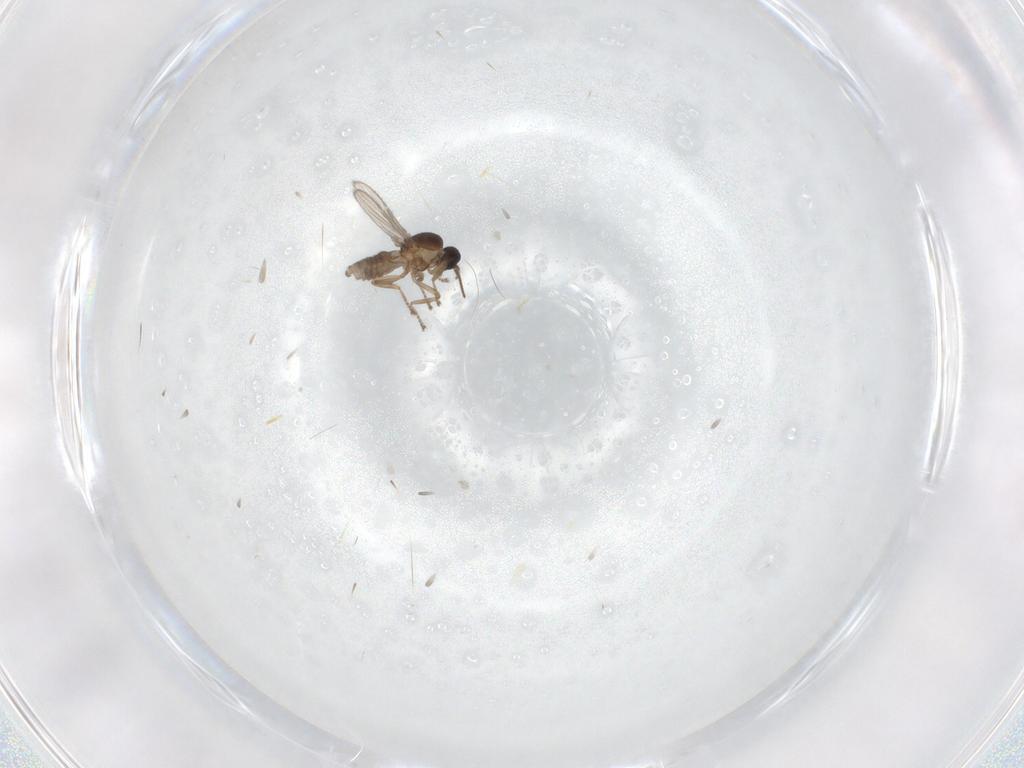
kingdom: Animalia
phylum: Arthropoda
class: Insecta
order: Diptera
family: Ceratopogonidae
